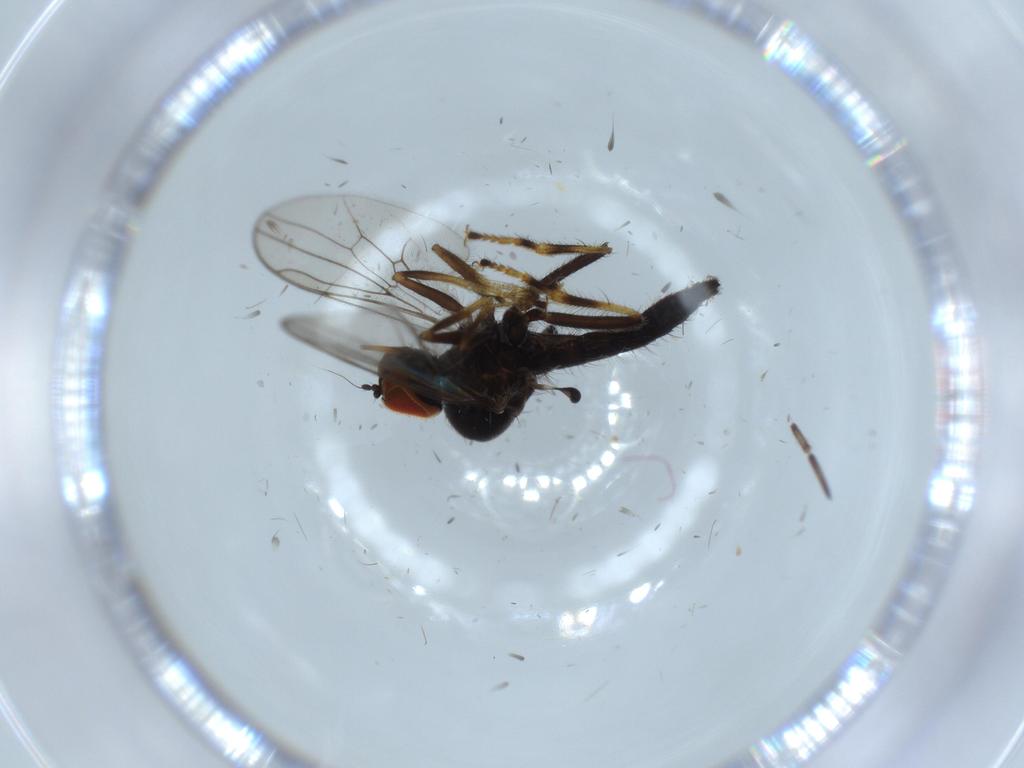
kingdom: Animalia
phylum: Arthropoda
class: Insecta
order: Diptera
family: Hybotidae
